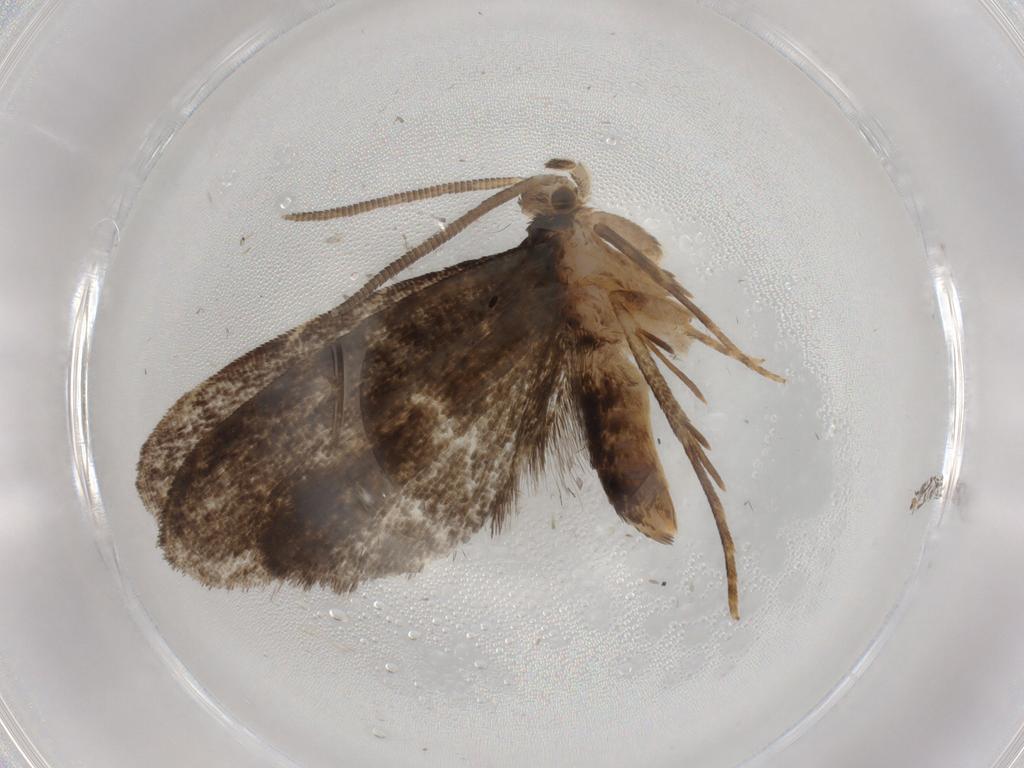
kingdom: Animalia
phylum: Arthropoda
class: Insecta
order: Lepidoptera
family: Dryadaulidae
